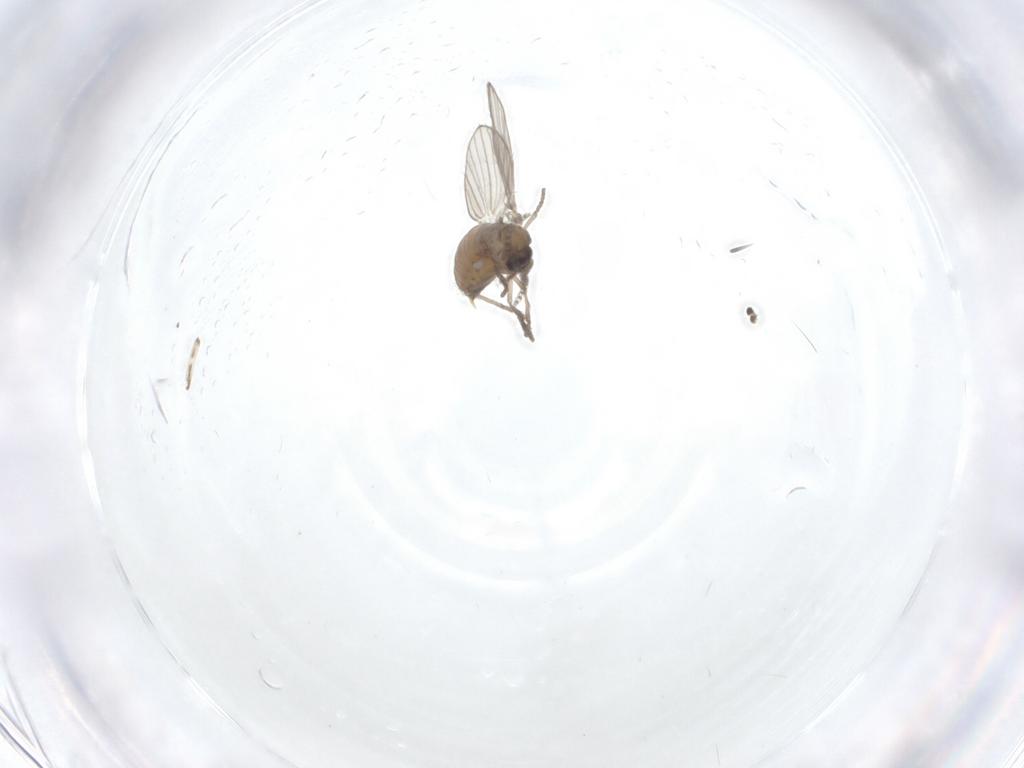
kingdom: Animalia
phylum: Arthropoda
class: Insecta
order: Diptera
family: Psychodidae
